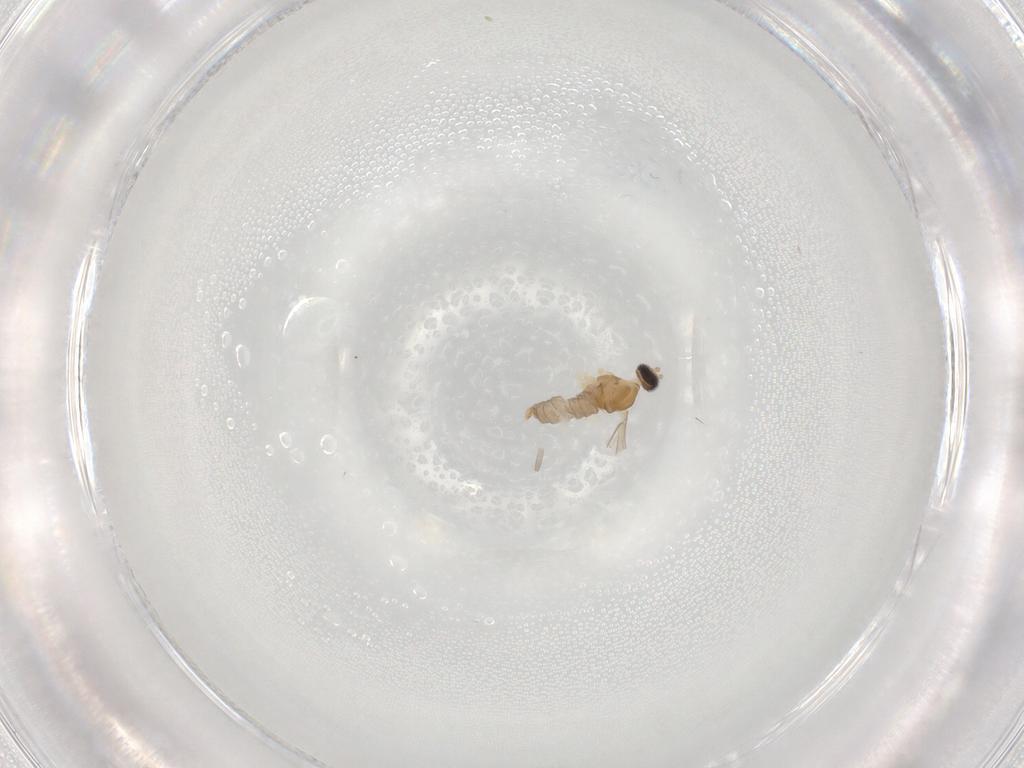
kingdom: Animalia
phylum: Arthropoda
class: Insecta
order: Diptera
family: Cecidomyiidae
